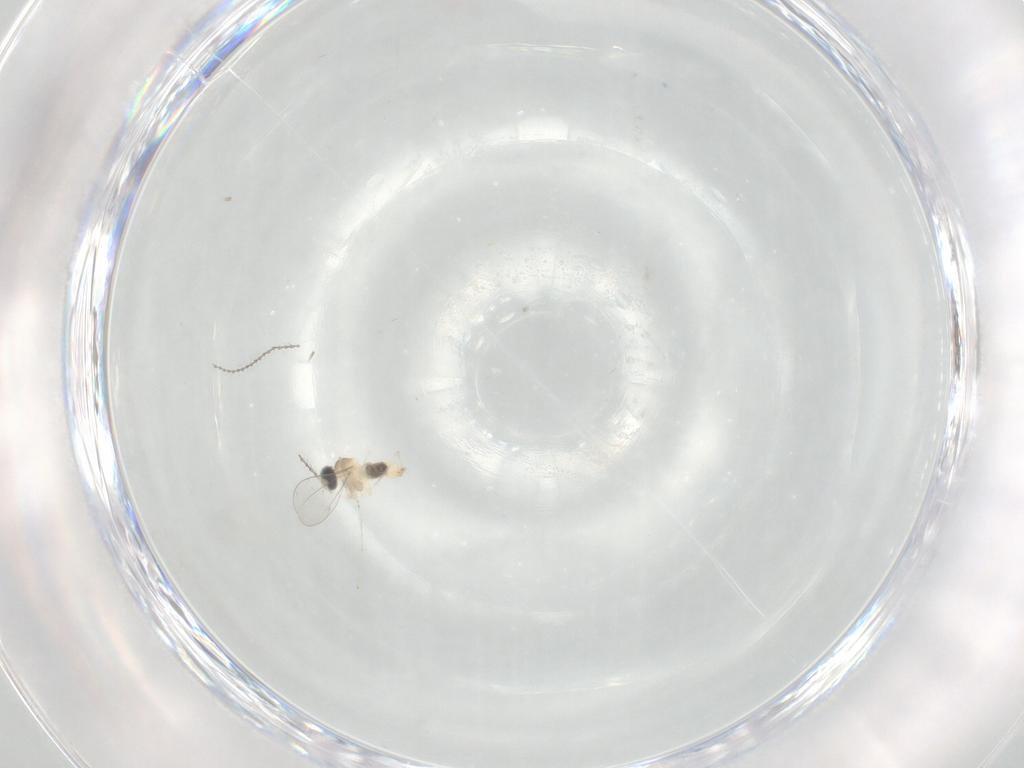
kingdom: Animalia
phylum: Arthropoda
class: Insecta
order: Diptera
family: Cecidomyiidae
